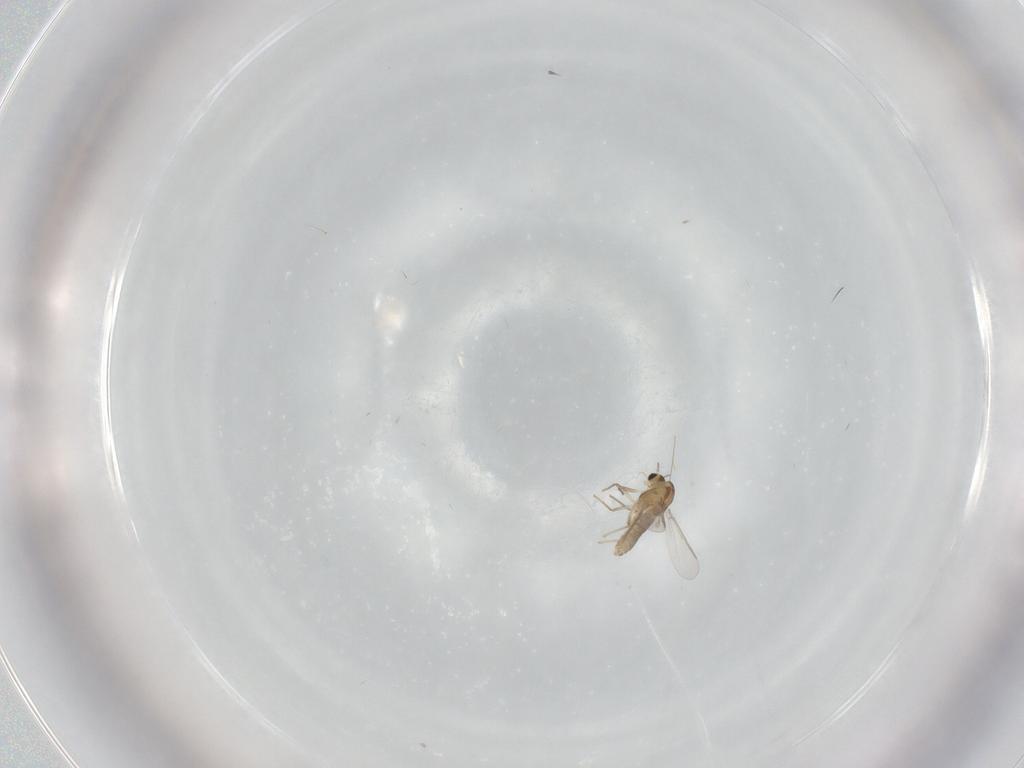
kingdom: Animalia
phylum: Arthropoda
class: Insecta
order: Diptera
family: Chironomidae
